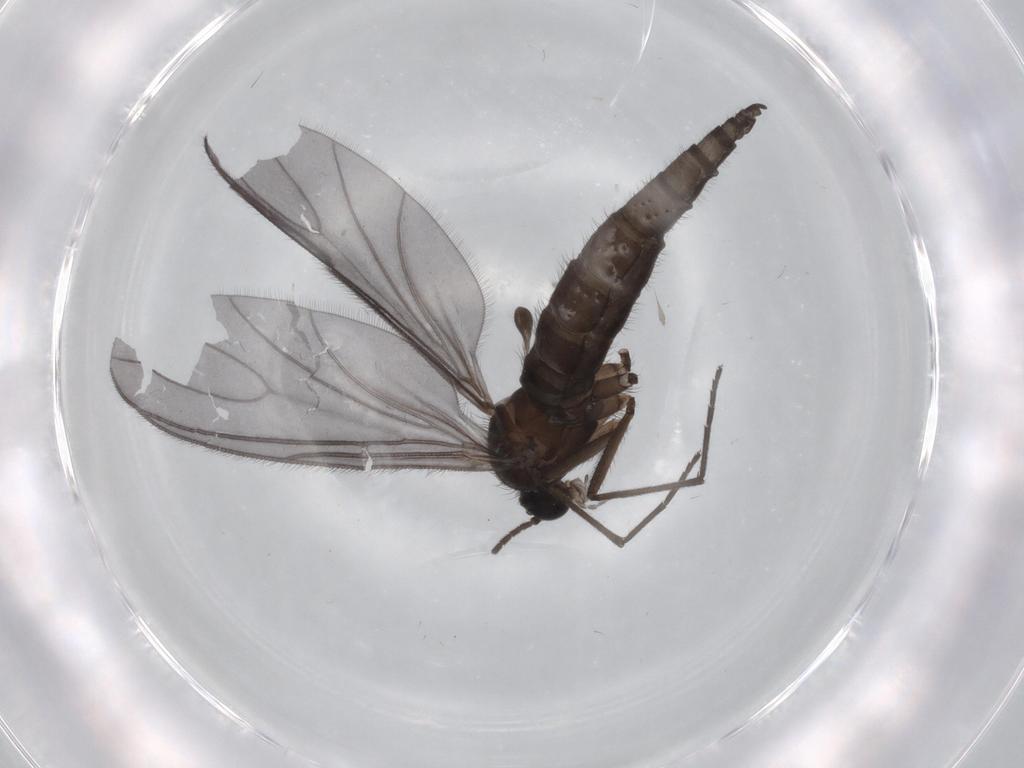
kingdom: Animalia
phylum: Arthropoda
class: Insecta
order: Diptera
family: Sciaridae
